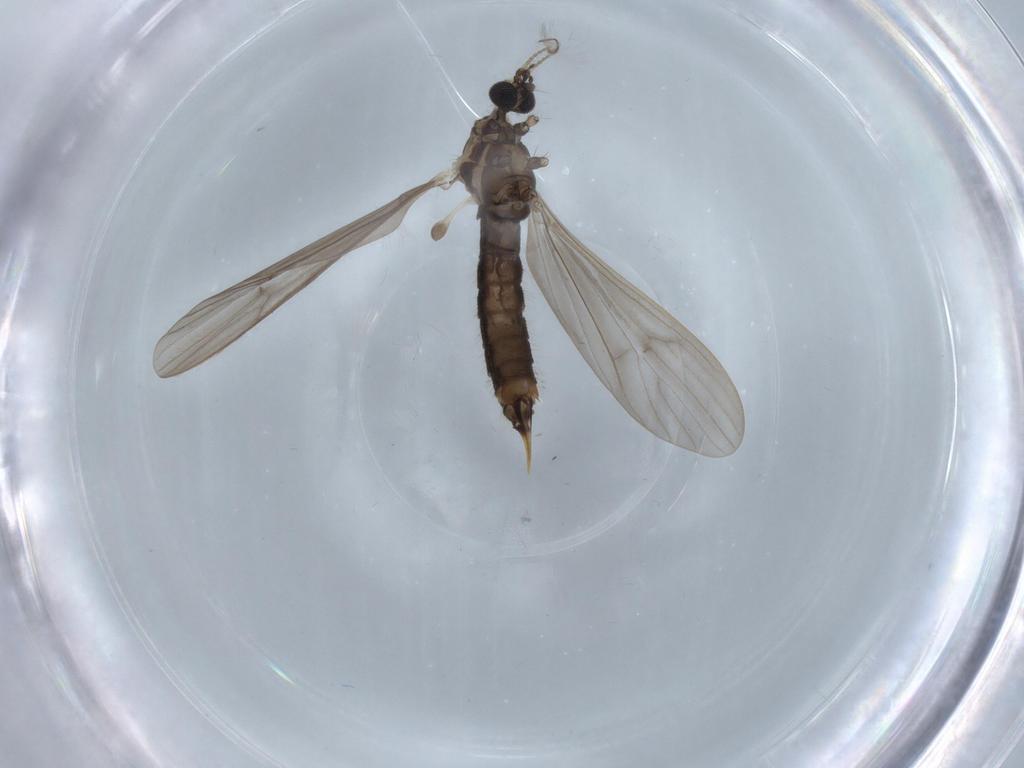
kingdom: Animalia
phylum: Arthropoda
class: Insecta
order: Diptera
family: Limoniidae
